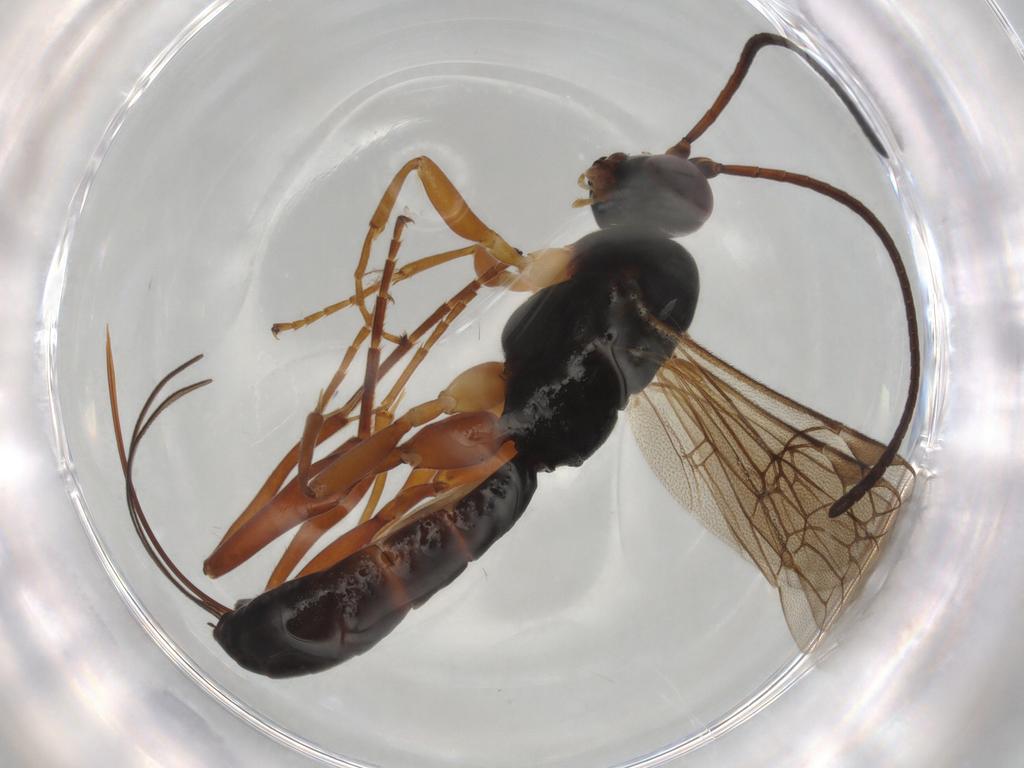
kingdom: Animalia
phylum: Arthropoda
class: Insecta
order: Hymenoptera
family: Ichneumonidae
